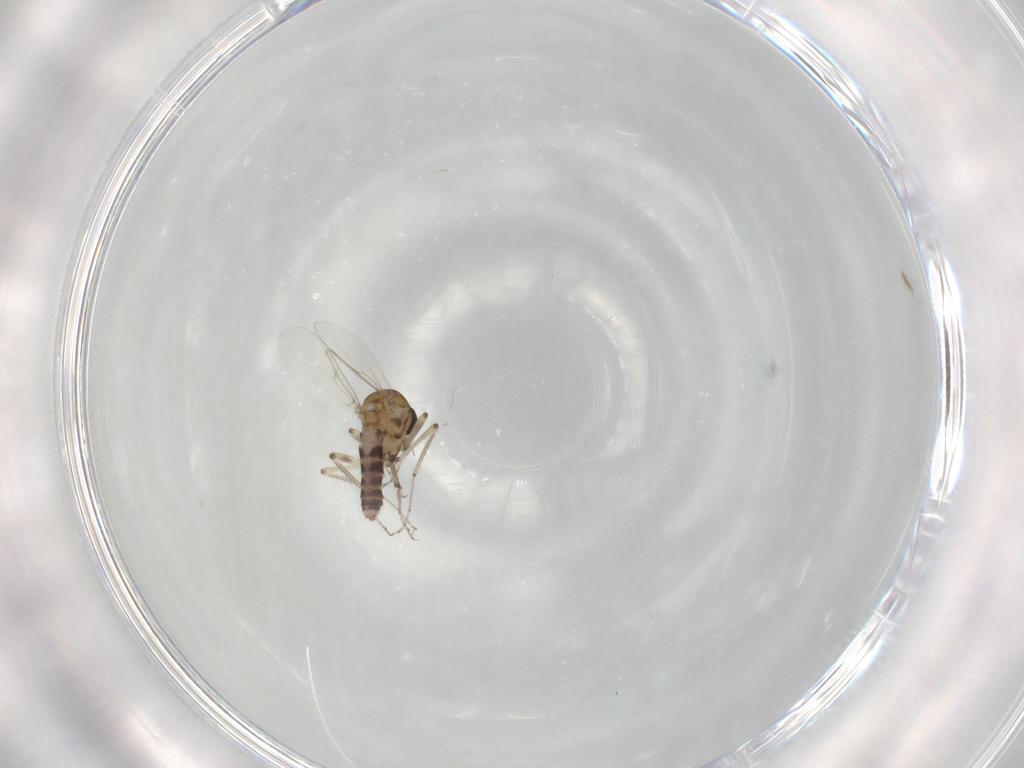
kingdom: Animalia
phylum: Arthropoda
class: Insecta
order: Diptera
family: Ceratopogonidae
